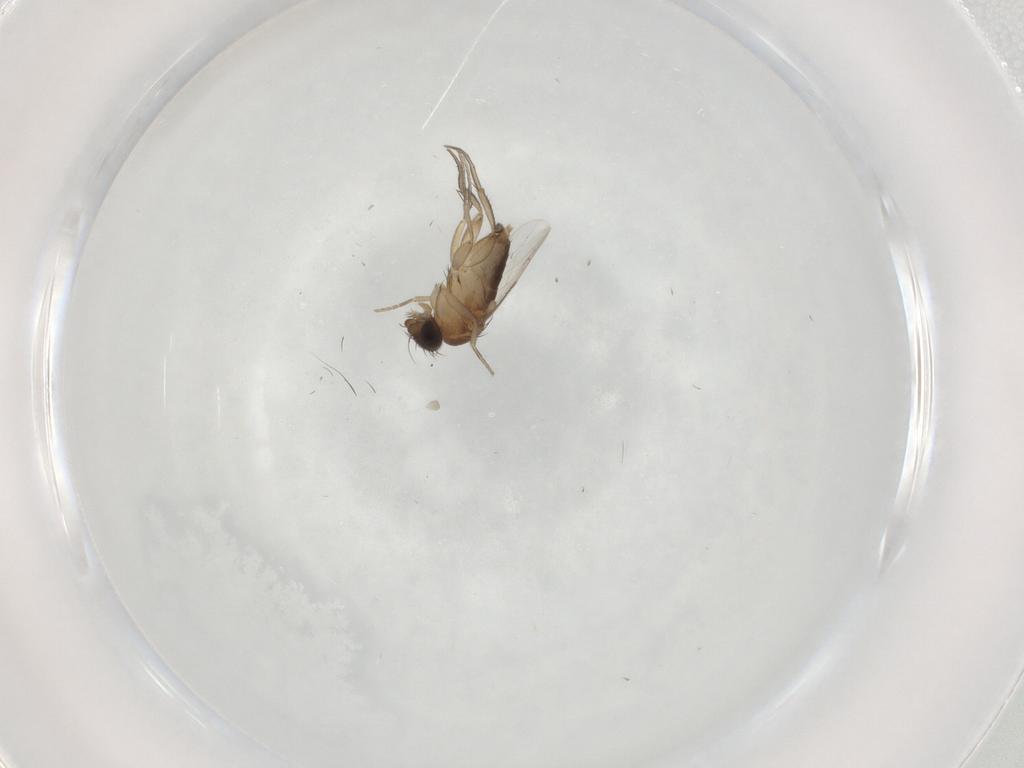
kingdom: Animalia
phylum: Arthropoda
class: Insecta
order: Diptera
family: Phoridae
